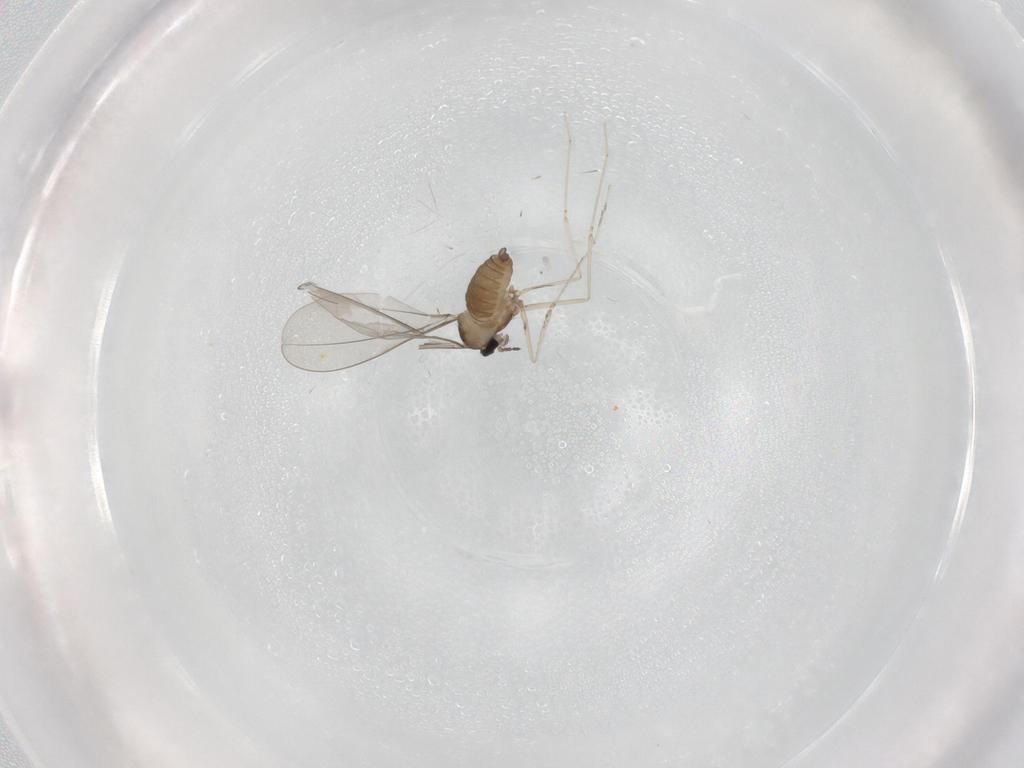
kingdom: Animalia
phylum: Arthropoda
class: Insecta
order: Diptera
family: Cecidomyiidae
